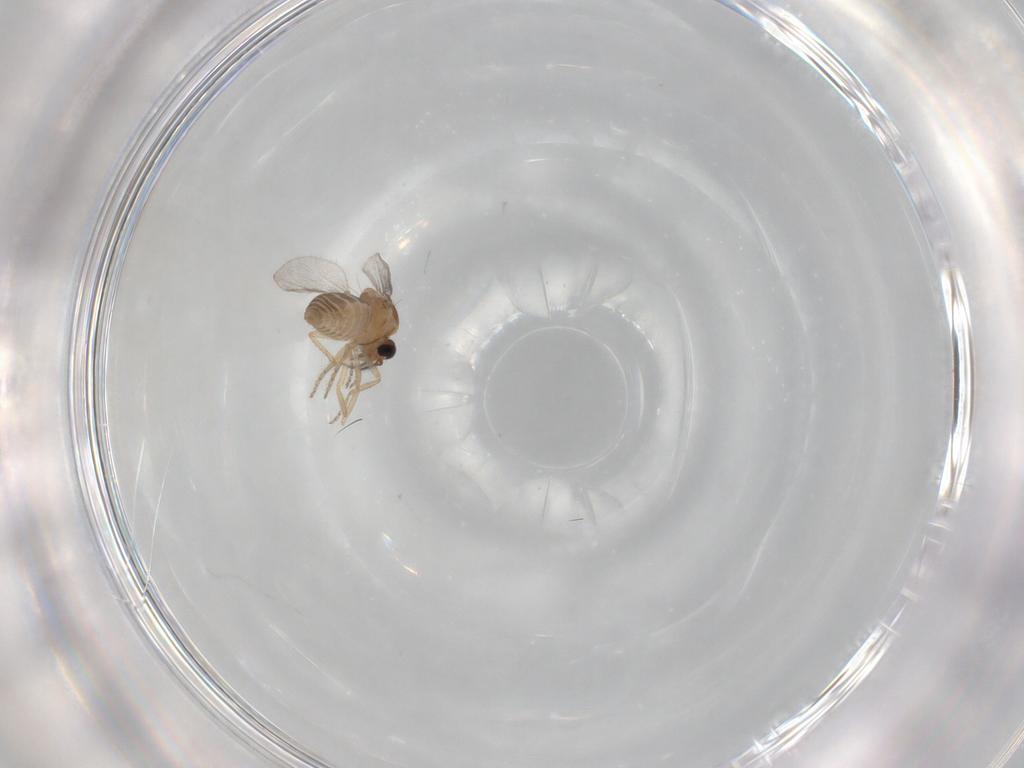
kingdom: Animalia
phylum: Arthropoda
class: Insecta
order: Diptera
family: Ceratopogonidae
